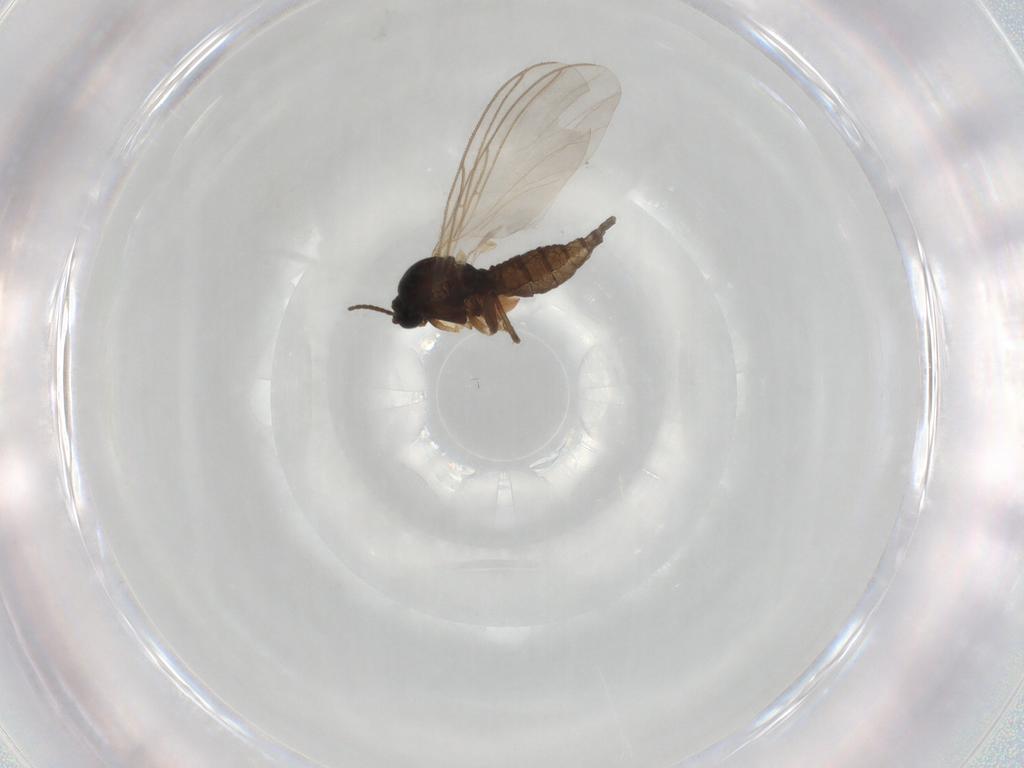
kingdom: Animalia
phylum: Arthropoda
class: Insecta
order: Diptera
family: Sciaridae
